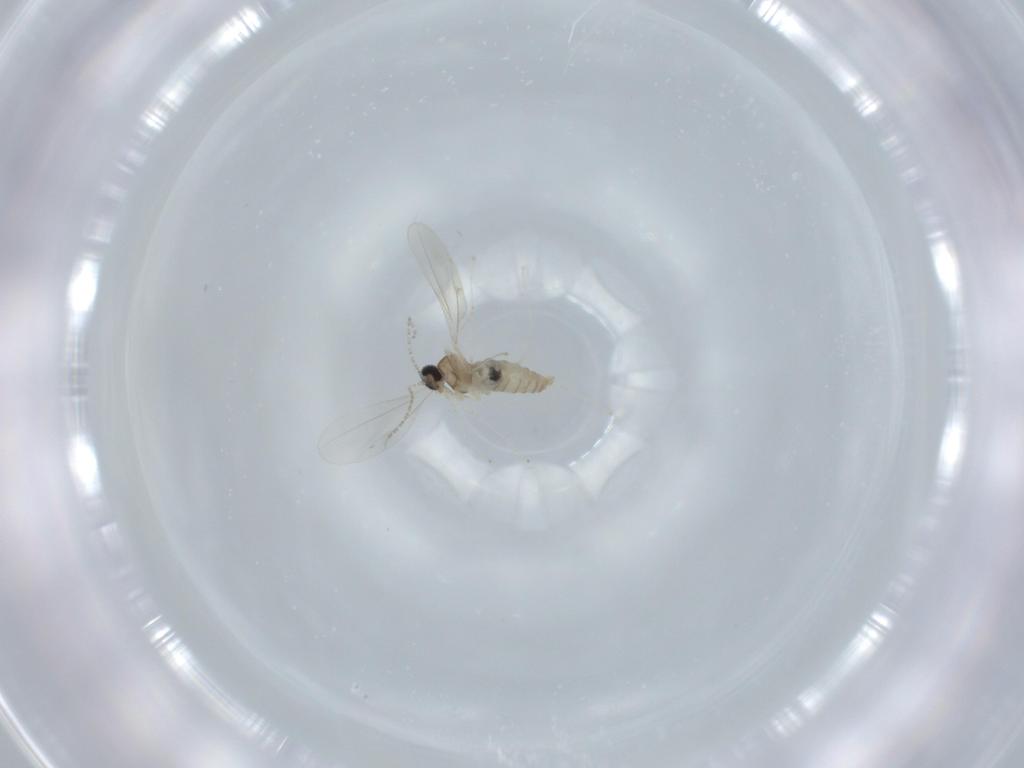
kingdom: Animalia
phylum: Arthropoda
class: Insecta
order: Diptera
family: Cecidomyiidae
